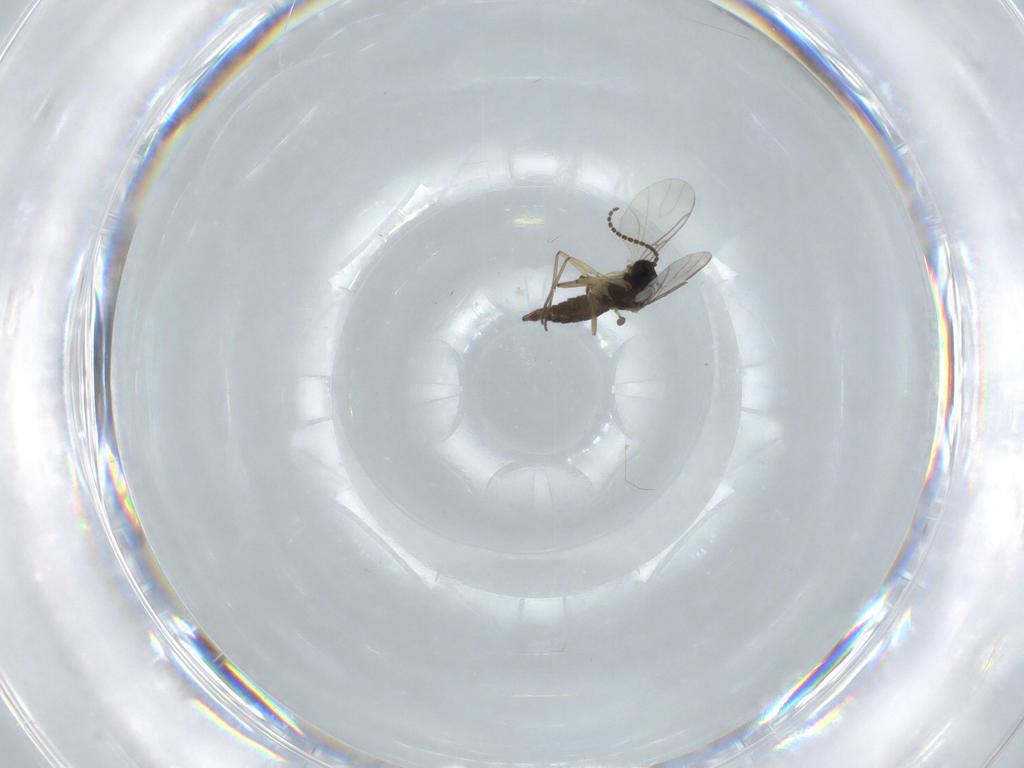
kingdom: Animalia
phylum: Arthropoda
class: Insecta
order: Diptera
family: Sciaridae
